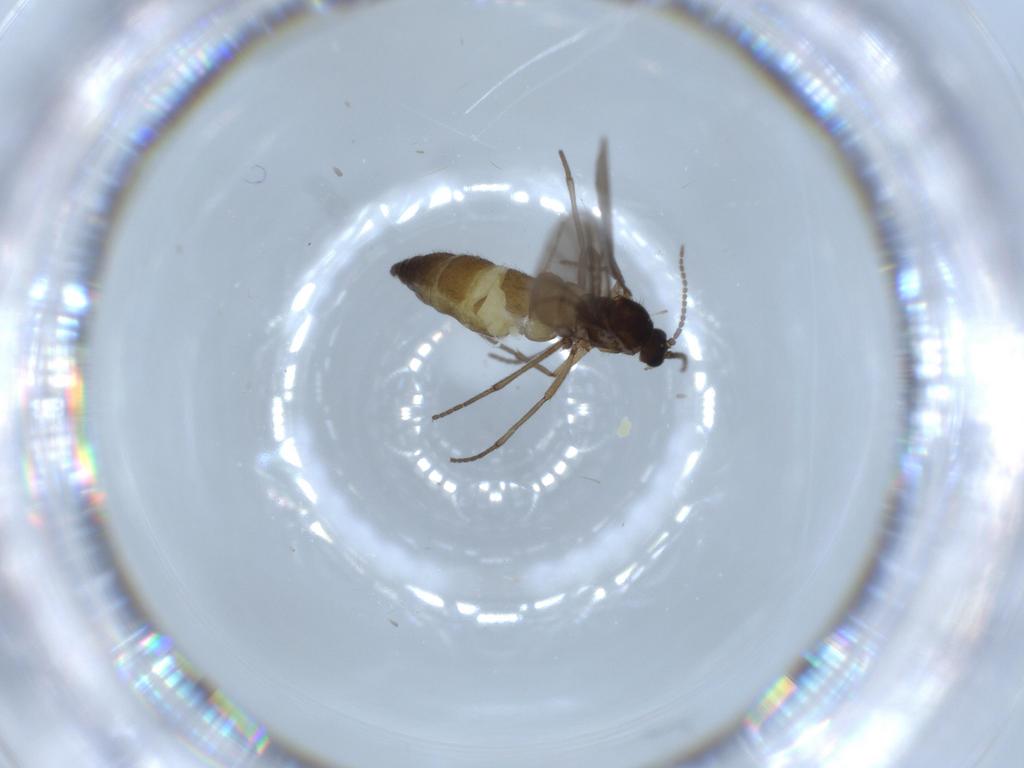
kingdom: Animalia
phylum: Arthropoda
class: Insecta
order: Diptera
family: Sciaridae
